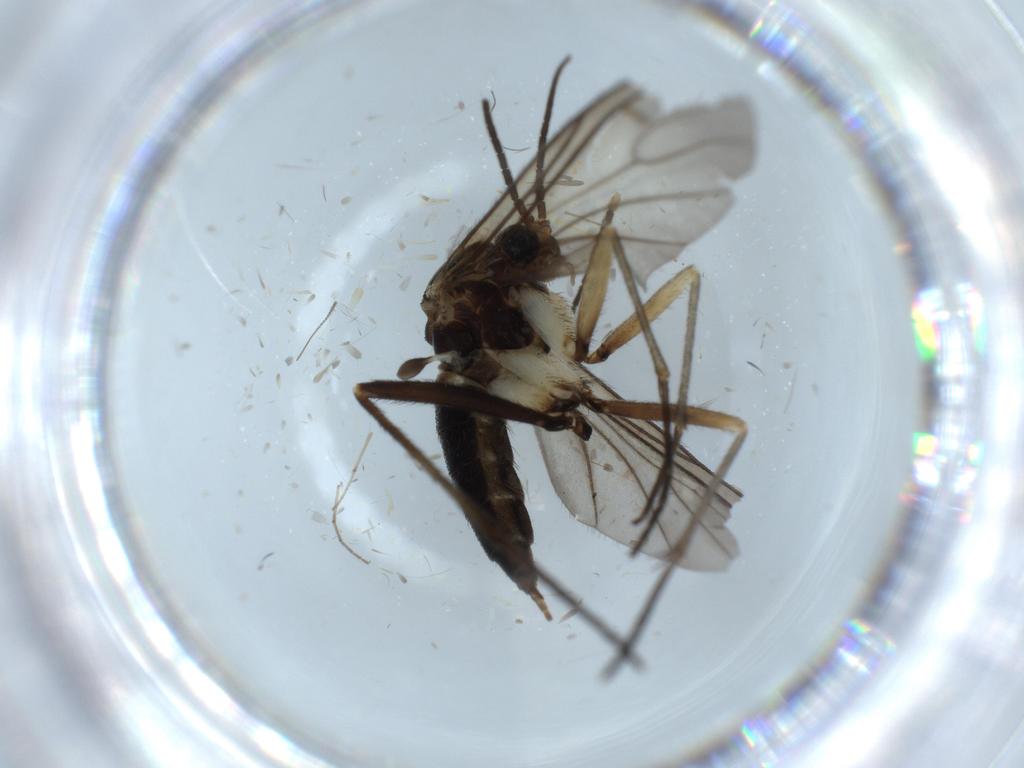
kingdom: Animalia
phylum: Arthropoda
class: Insecta
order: Diptera
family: Sciaridae
